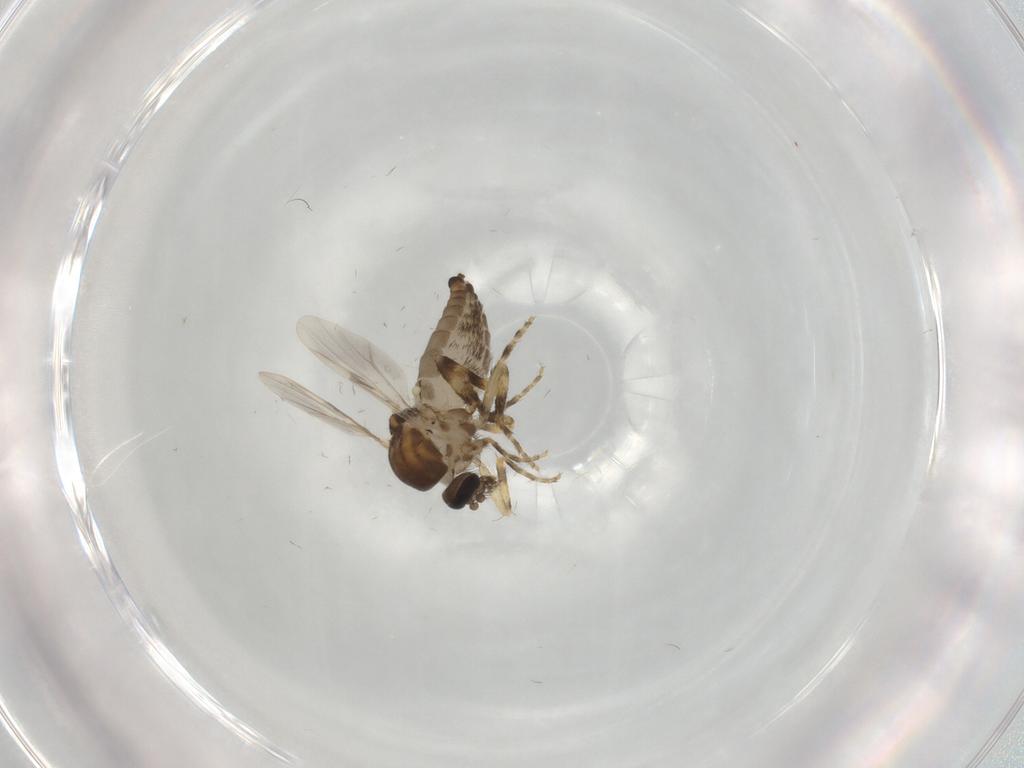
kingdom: Animalia
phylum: Arthropoda
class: Insecta
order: Diptera
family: Ceratopogonidae
